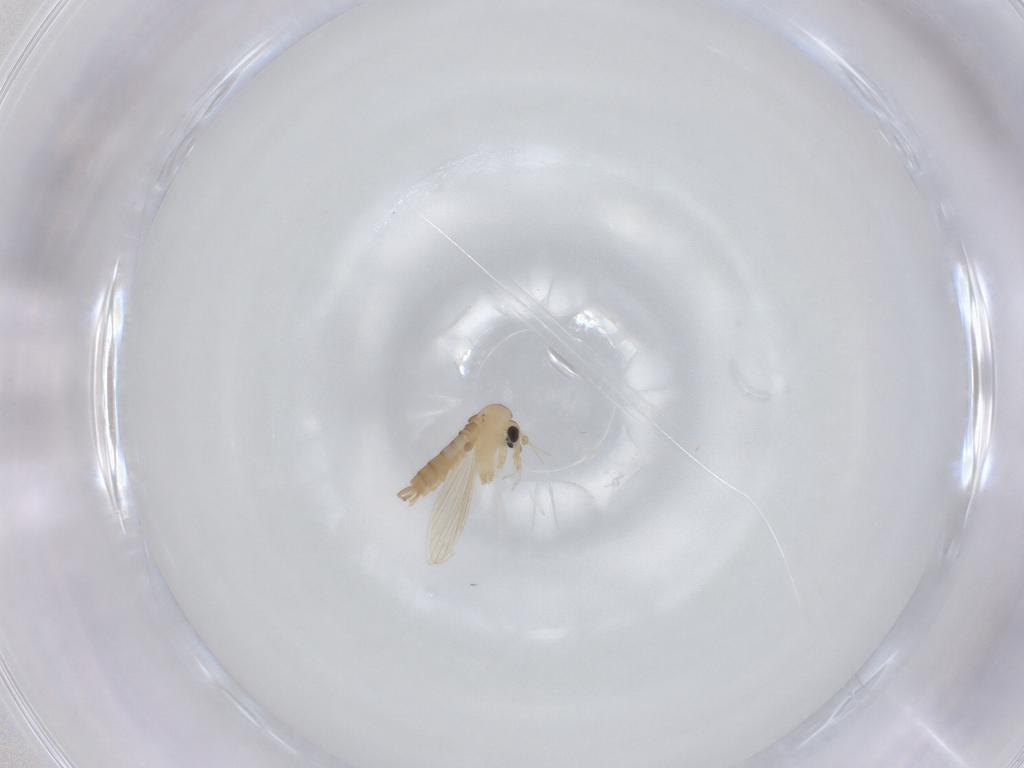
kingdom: Animalia
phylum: Arthropoda
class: Insecta
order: Diptera
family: Psychodidae
